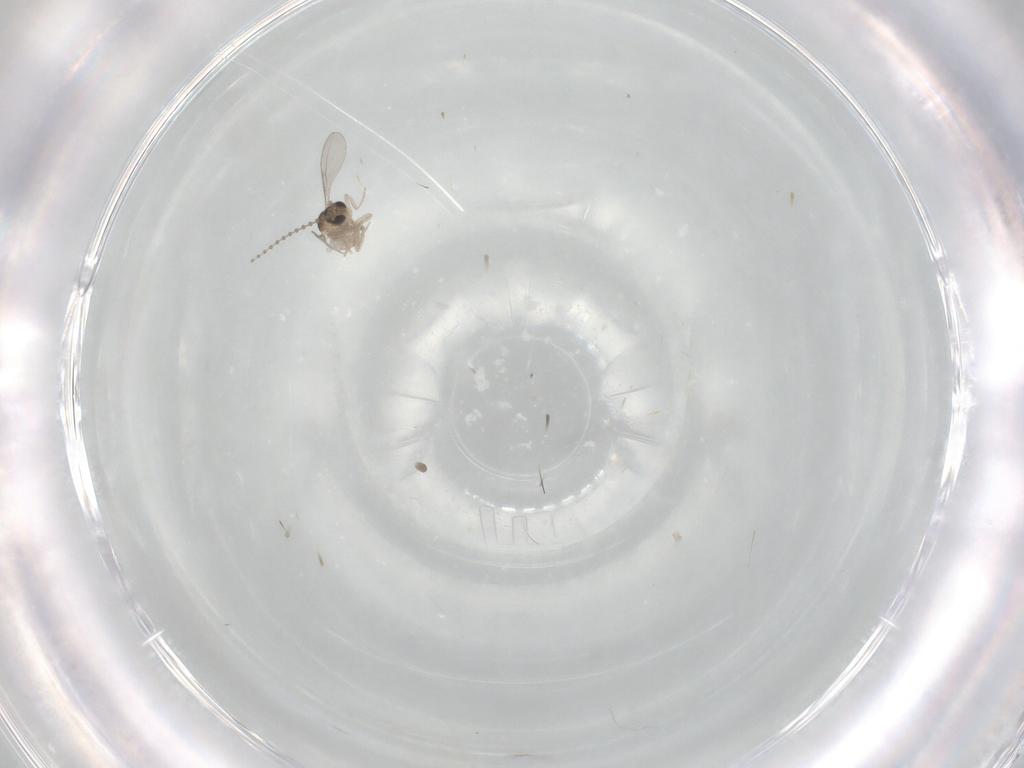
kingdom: Animalia
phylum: Arthropoda
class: Insecta
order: Diptera
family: Cecidomyiidae
